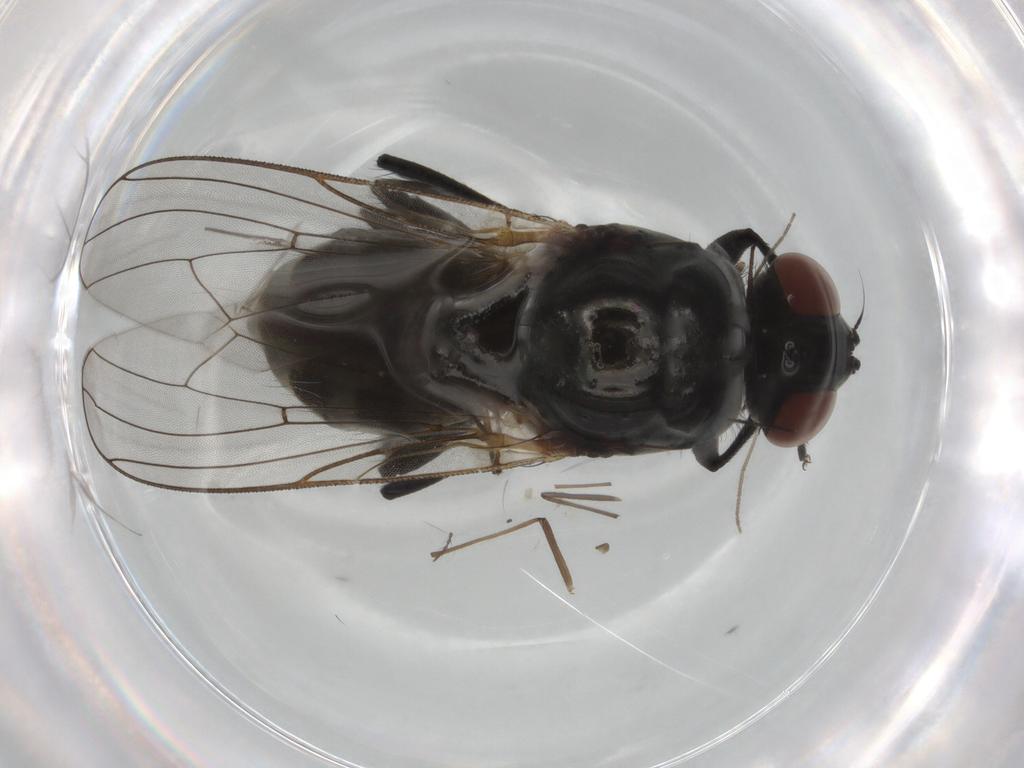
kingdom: Animalia
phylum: Arthropoda
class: Insecta
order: Diptera
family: Anthomyiidae
